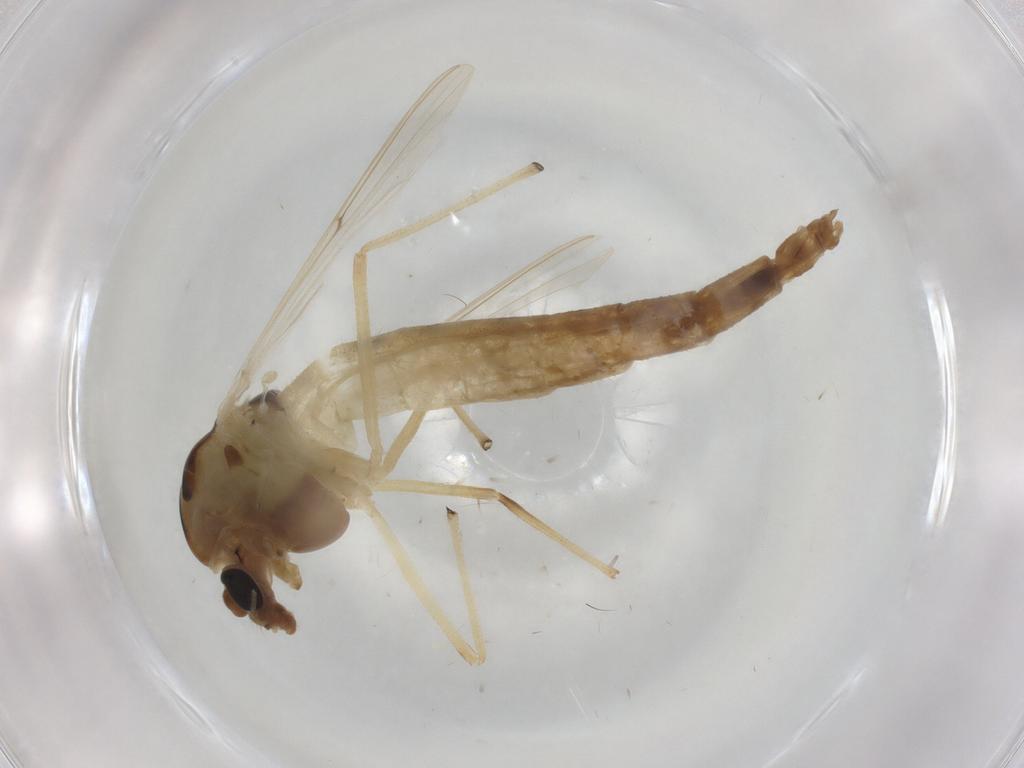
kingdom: Animalia
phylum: Arthropoda
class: Insecta
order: Diptera
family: Chironomidae
